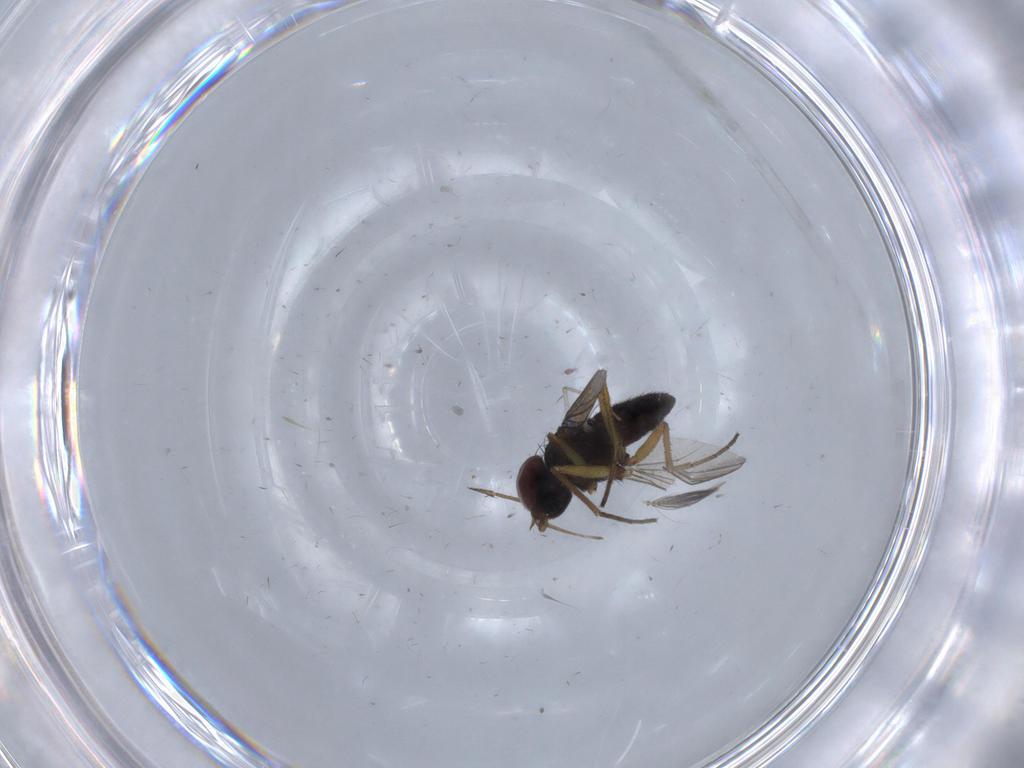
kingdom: Animalia
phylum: Arthropoda
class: Insecta
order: Diptera
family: Dolichopodidae
